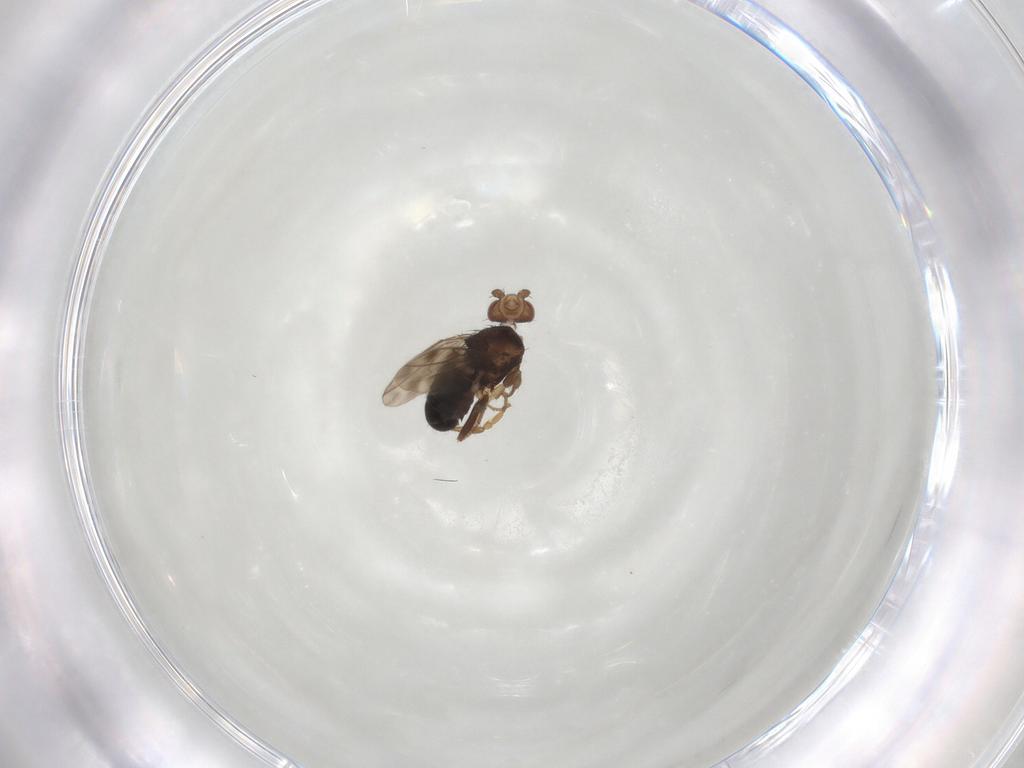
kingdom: Animalia
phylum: Arthropoda
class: Insecta
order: Diptera
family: Sphaeroceridae
